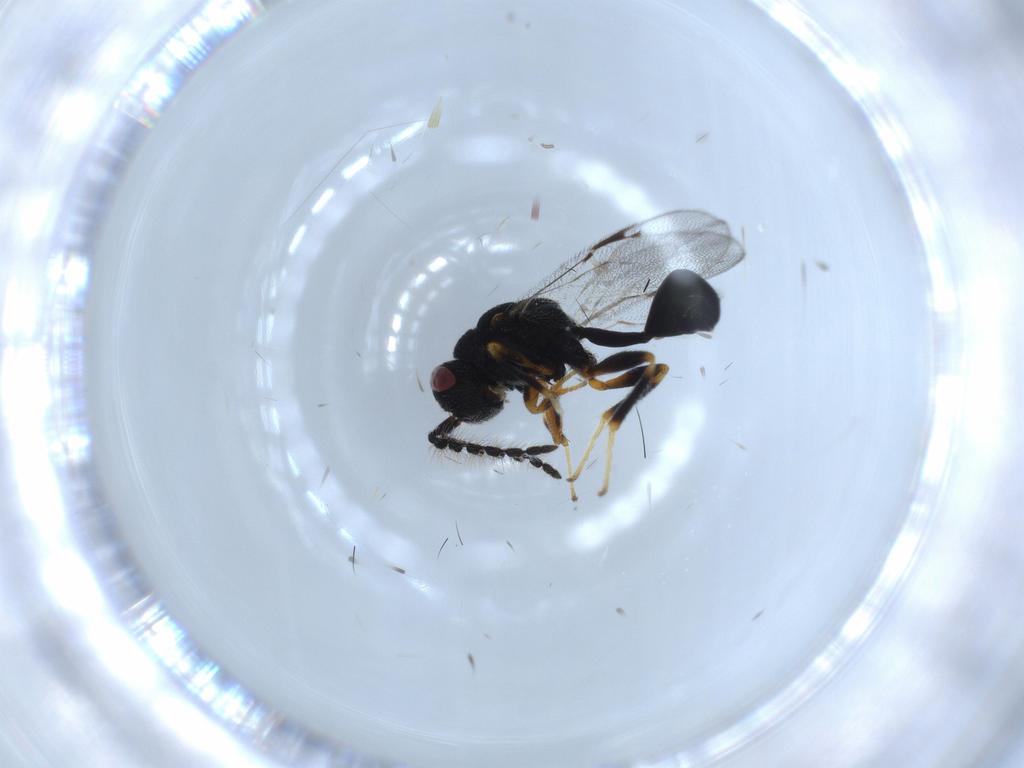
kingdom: Animalia
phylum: Arthropoda
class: Insecta
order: Hymenoptera
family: Eurytomidae
